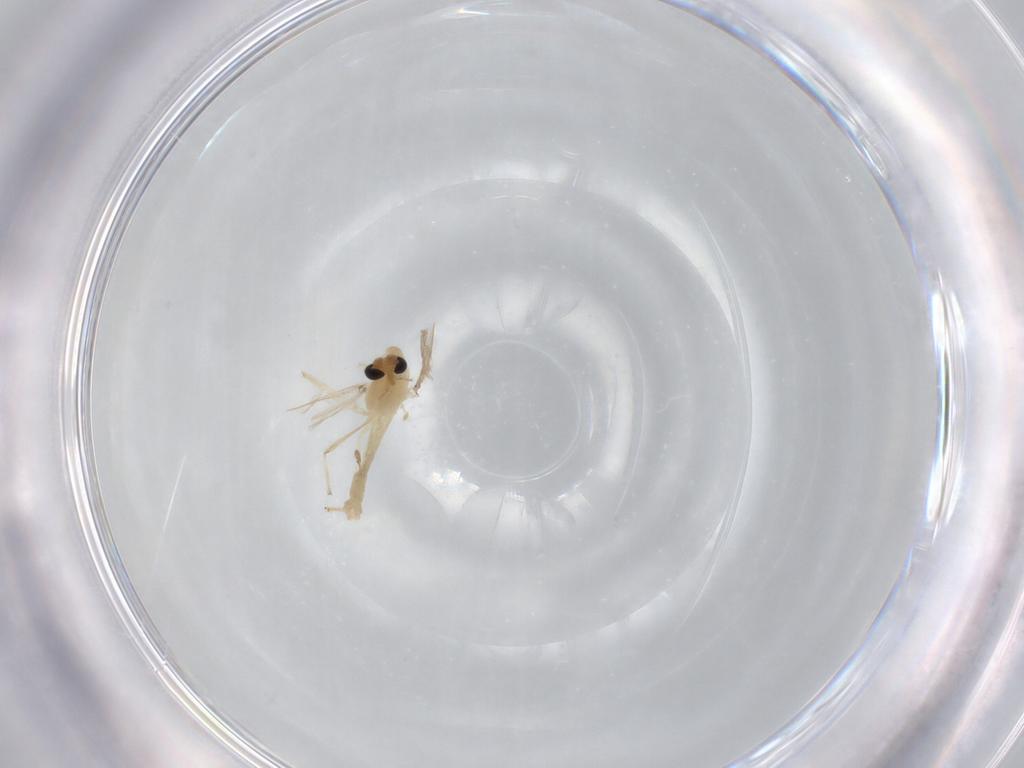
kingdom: Animalia
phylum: Arthropoda
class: Insecta
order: Diptera
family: Chironomidae
